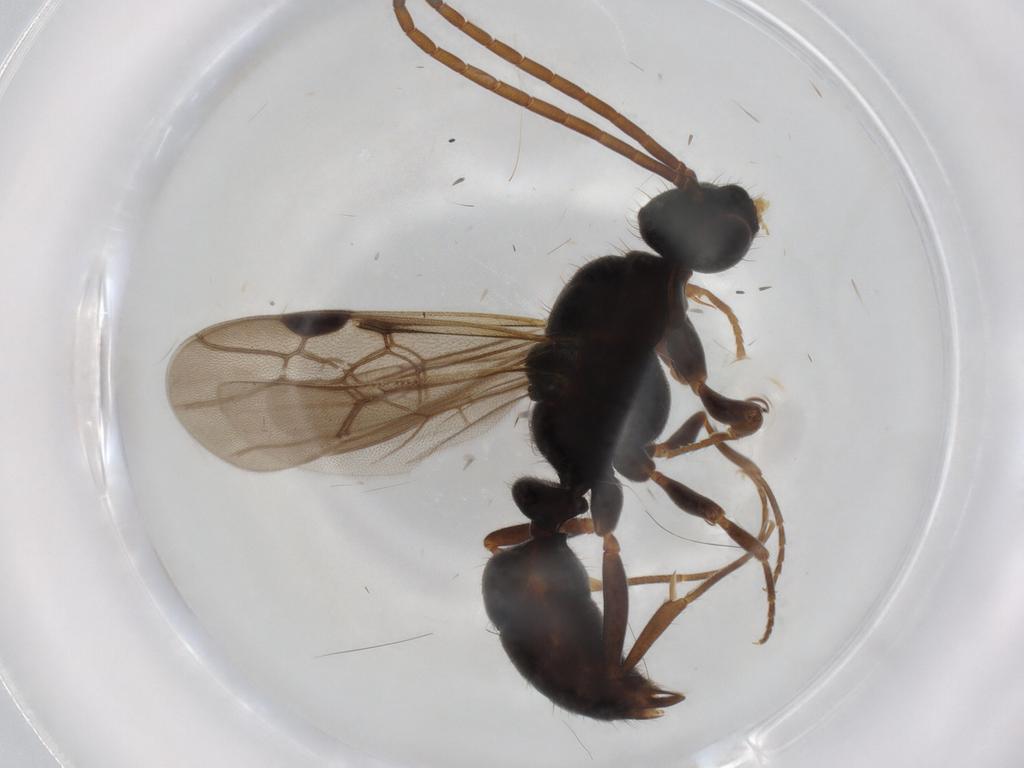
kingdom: Animalia
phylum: Arthropoda
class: Insecta
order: Hymenoptera
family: Formicidae
